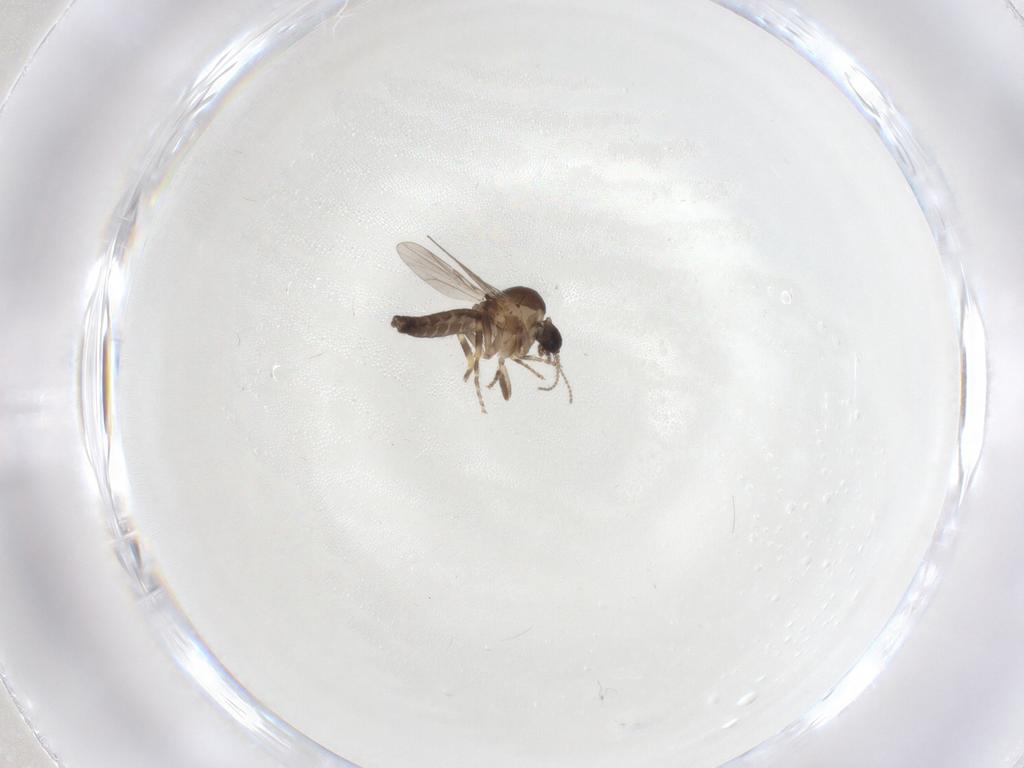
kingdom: Animalia
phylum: Arthropoda
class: Insecta
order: Diptera
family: Ceratopogonidae
